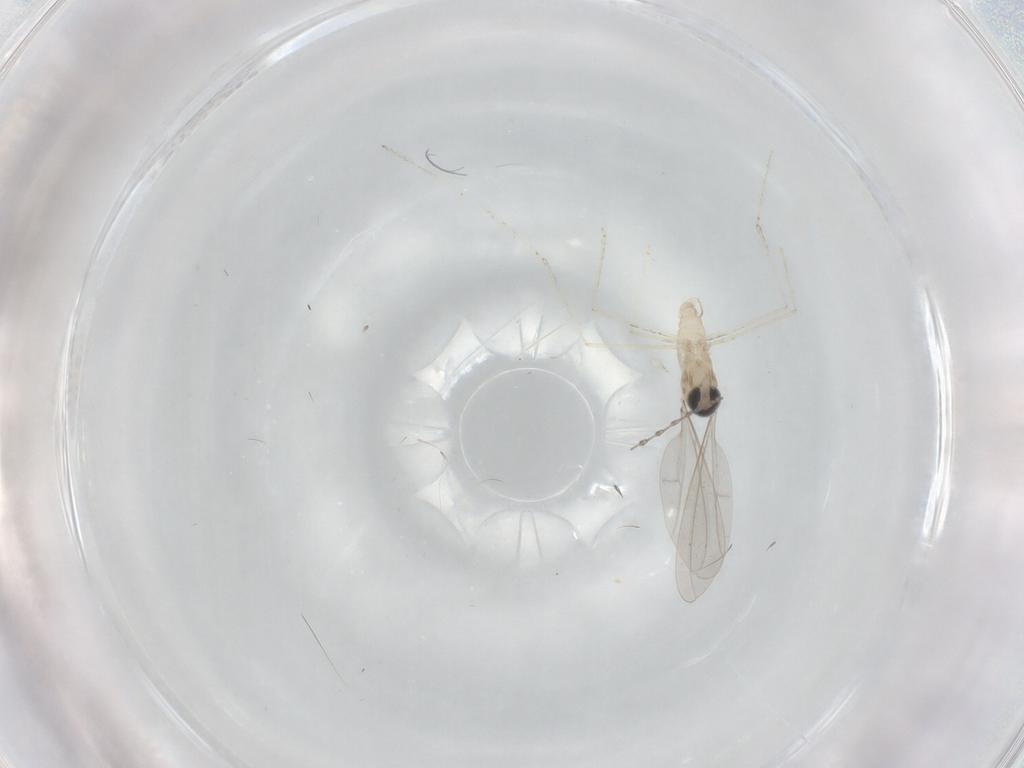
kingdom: Animalia
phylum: Arthropoda
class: Insecta
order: Diptera
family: Cecidomyiidae
